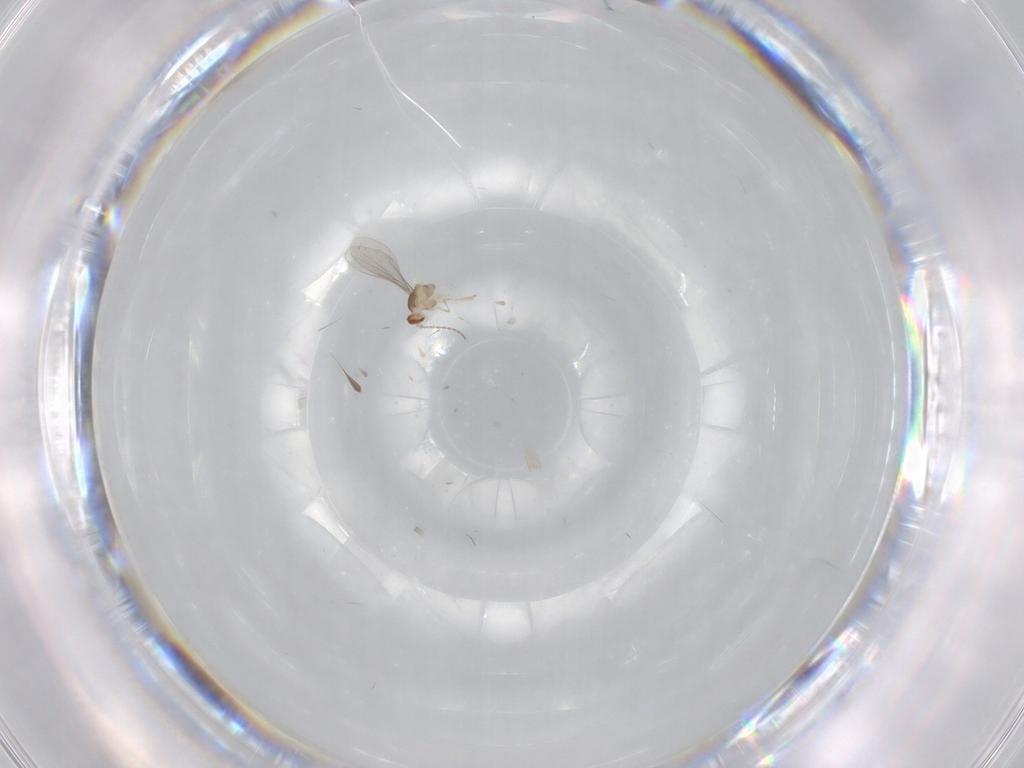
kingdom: Animalia
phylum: Arthropoda
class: Insecta
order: Diptera
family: Cecidomyiidae
